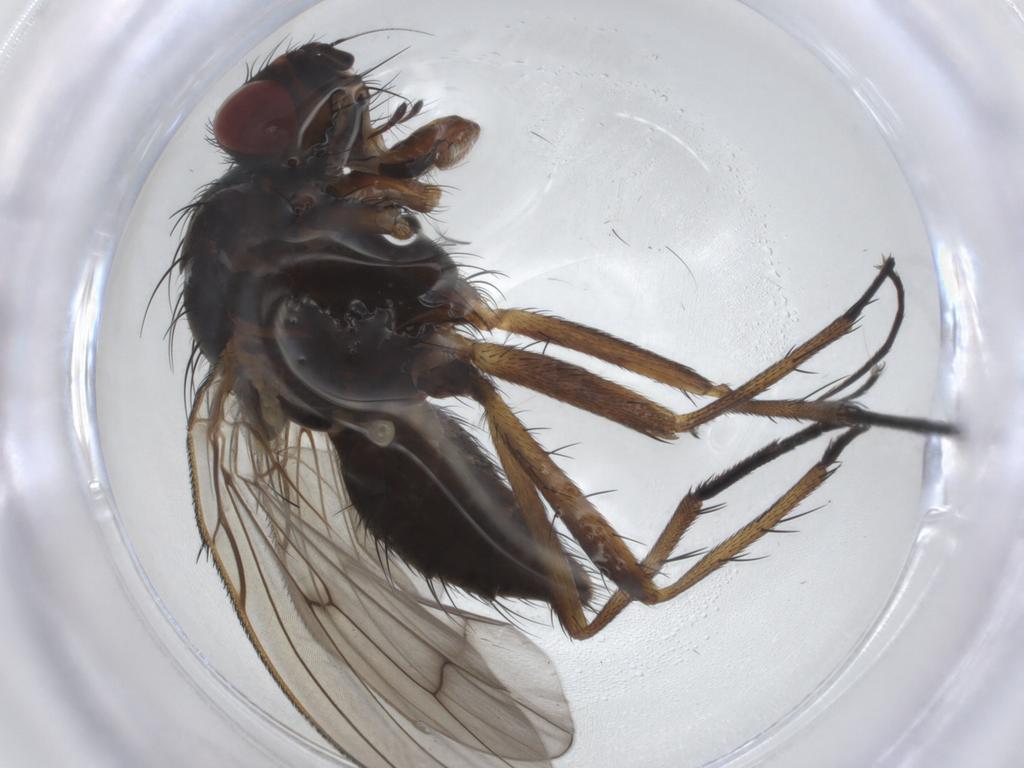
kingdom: Animalia
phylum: Arthropoda
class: Insecta
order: Diptera
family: Anthomyiidae
